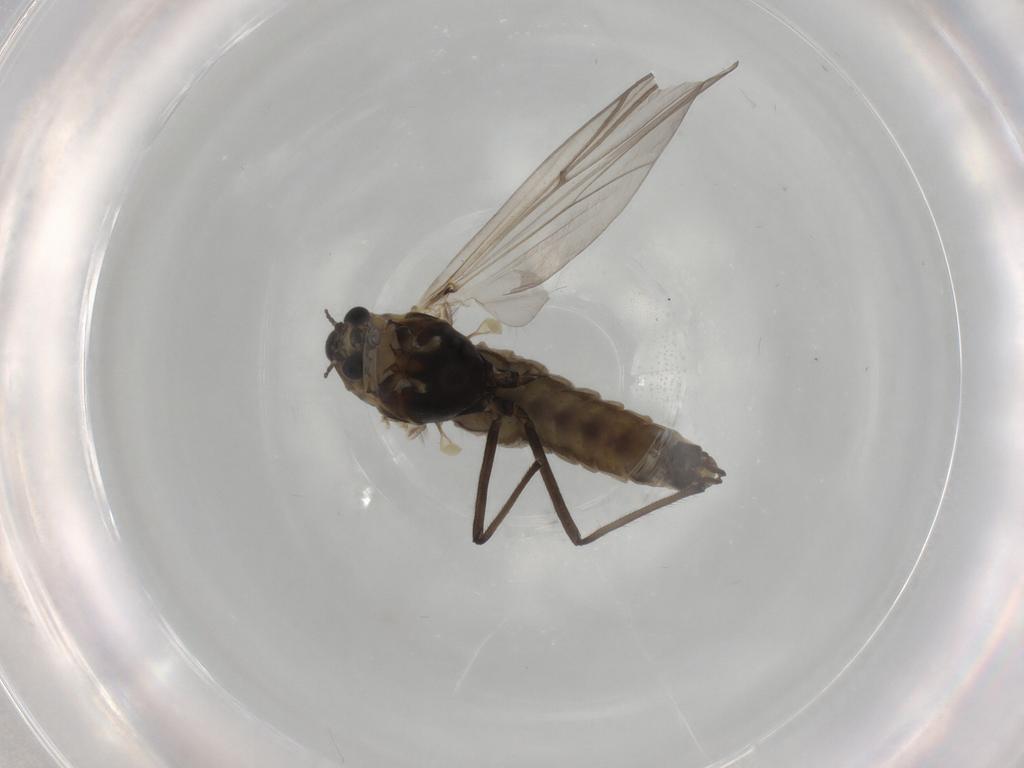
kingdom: Animalia
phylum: Arthropoda
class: Insecta
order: Diptera
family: Chironomidae
